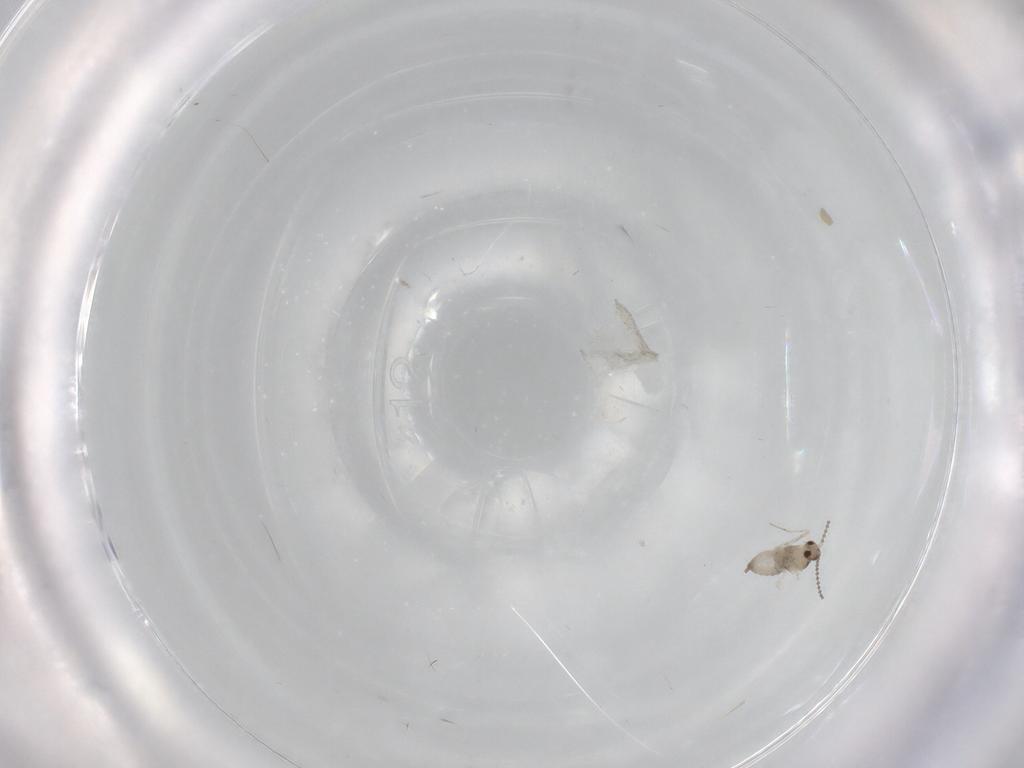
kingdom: Animalia
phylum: Arthropoda
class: Insecta
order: Diptera
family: Cecidomyiidae
